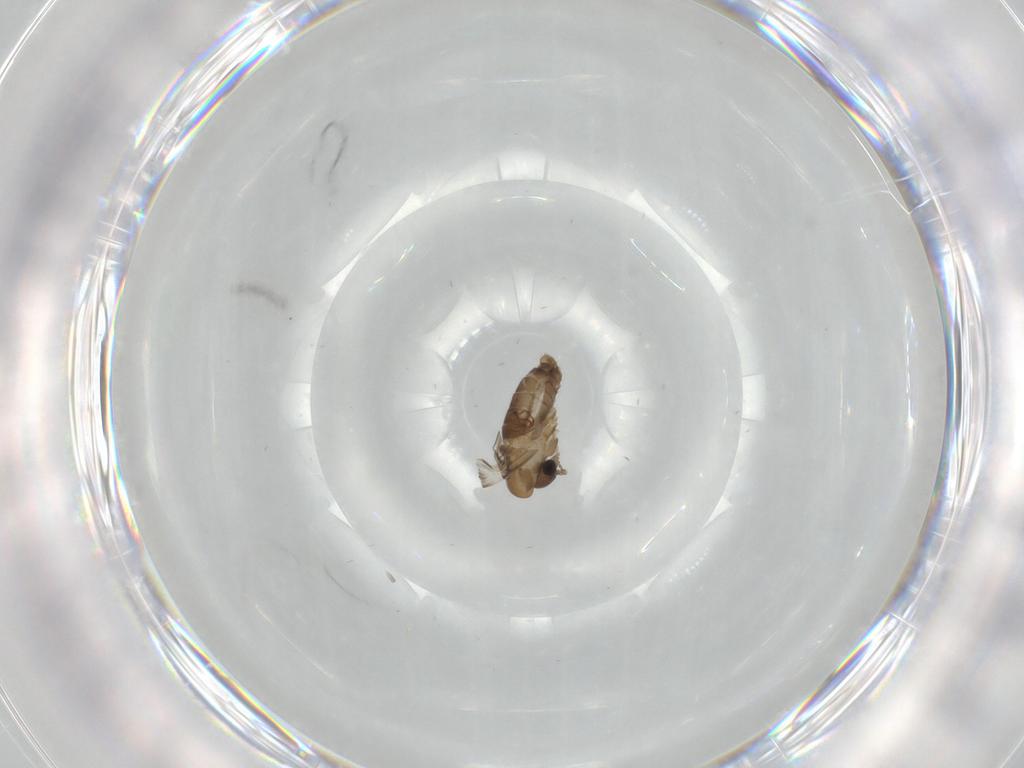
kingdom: Animalia
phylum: Arthropoda
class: Insecta
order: Diptera
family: Psychodidae
